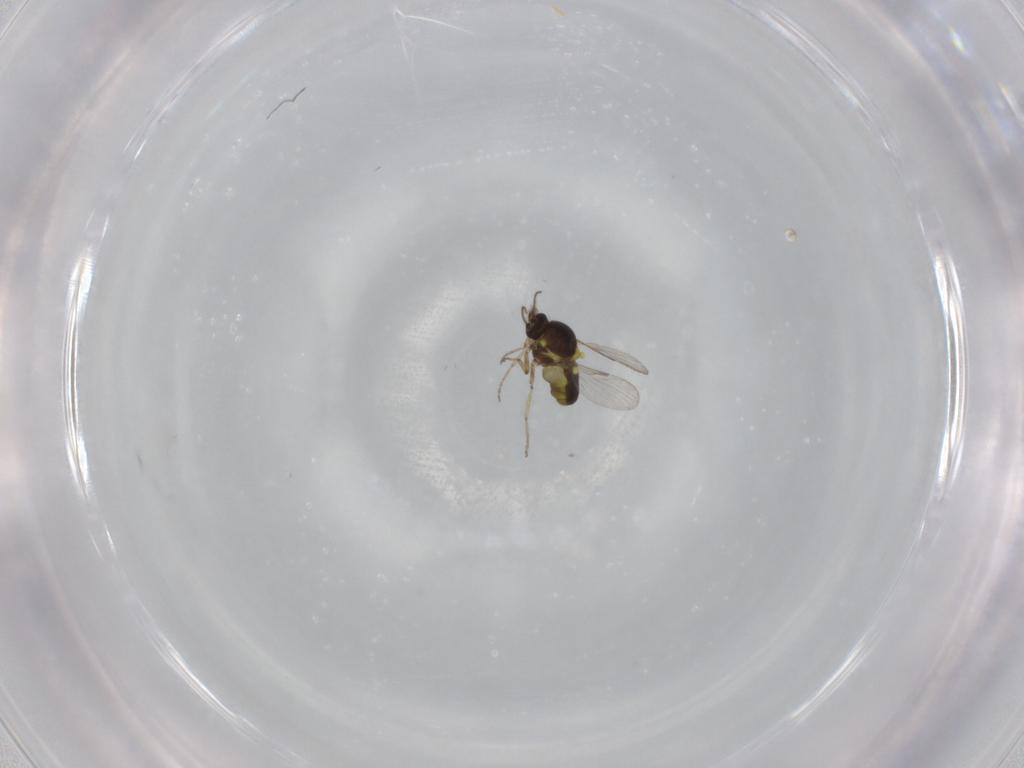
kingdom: Animalia
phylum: Arthropoda
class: Insecta
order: Diptera
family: Ceratopogonidae
